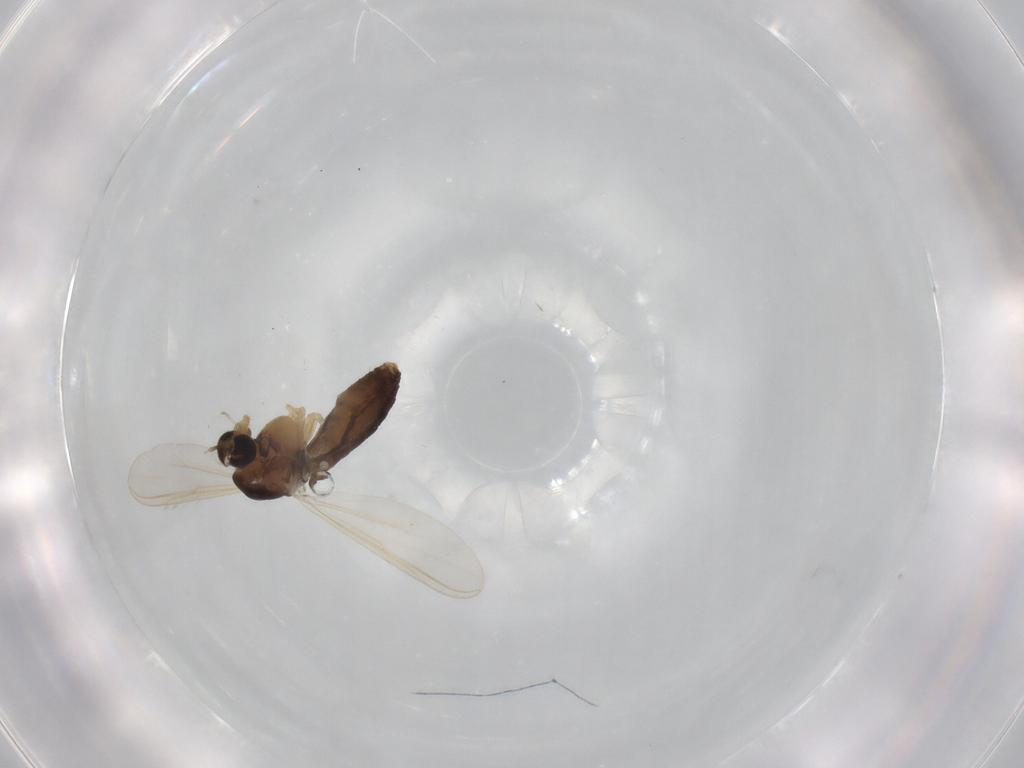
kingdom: Animalia
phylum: Arthropoda
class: Insecta
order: Diptera
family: Chironomidae
